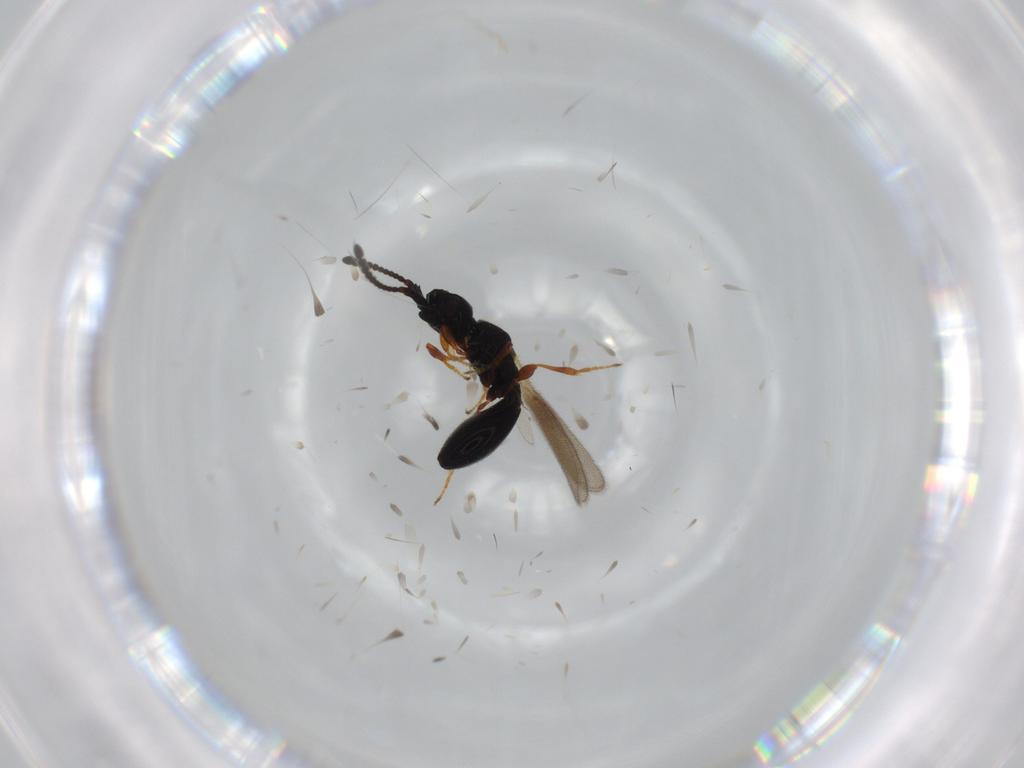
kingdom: Animalia
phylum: Arthropoda
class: Insecta
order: Hymenoptera
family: Diapriidae
